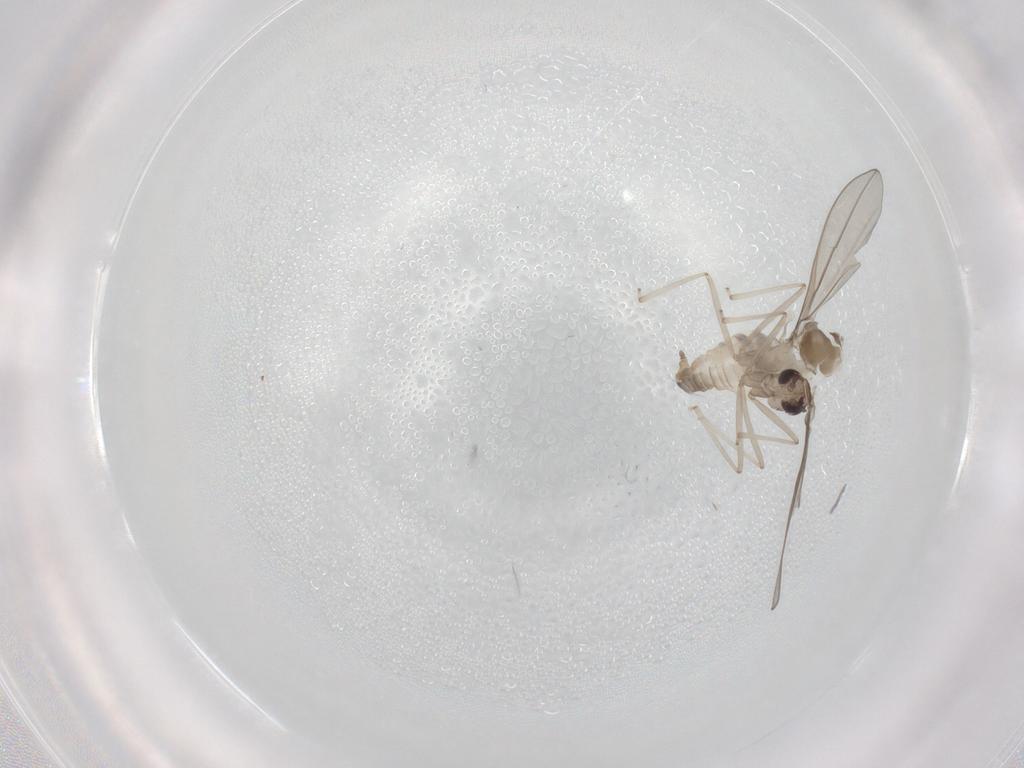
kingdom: Animalia
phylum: Arthropoda
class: Insecta
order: Diptera
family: Cecidomyiidae
